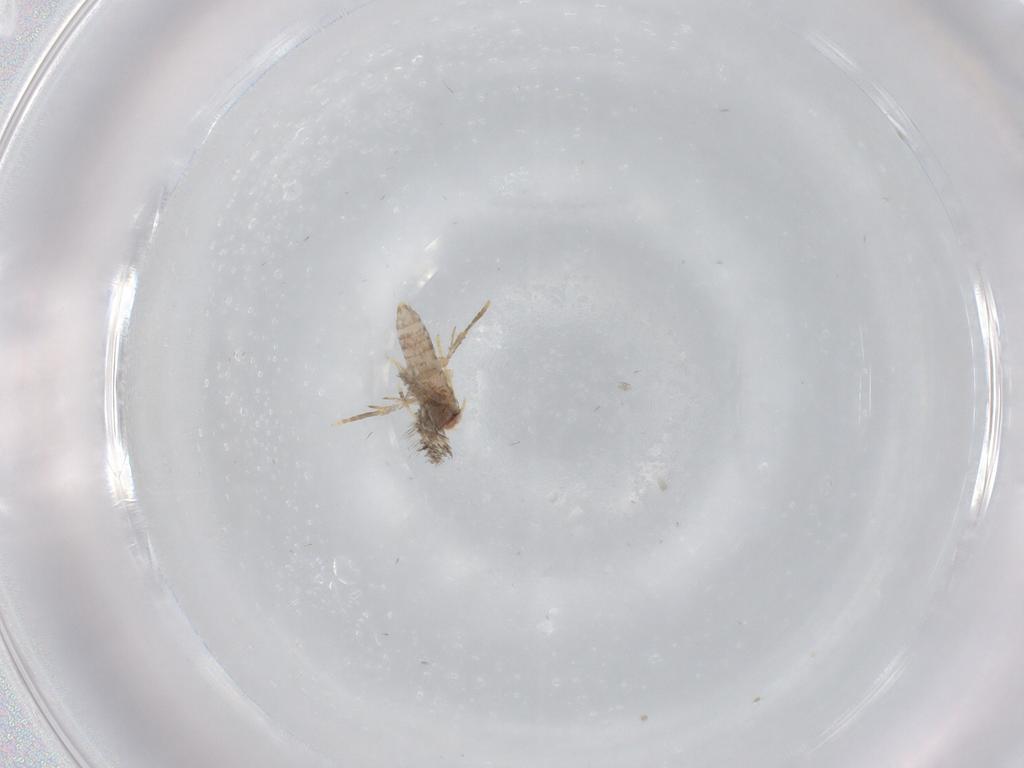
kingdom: Animalia
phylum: Arthropoda
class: Insecta
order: Lepidoptera
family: Nepticulidae
